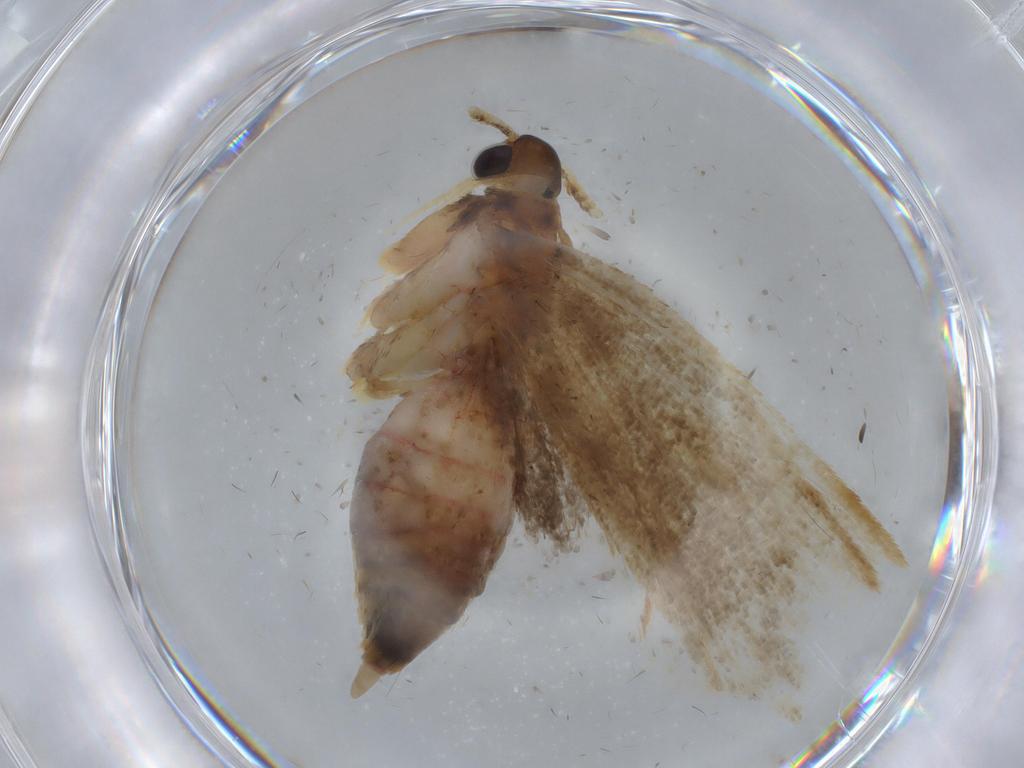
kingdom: Animalia
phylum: Arthropoda
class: Insecta
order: Lepidoptera
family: Lecithoceridae
